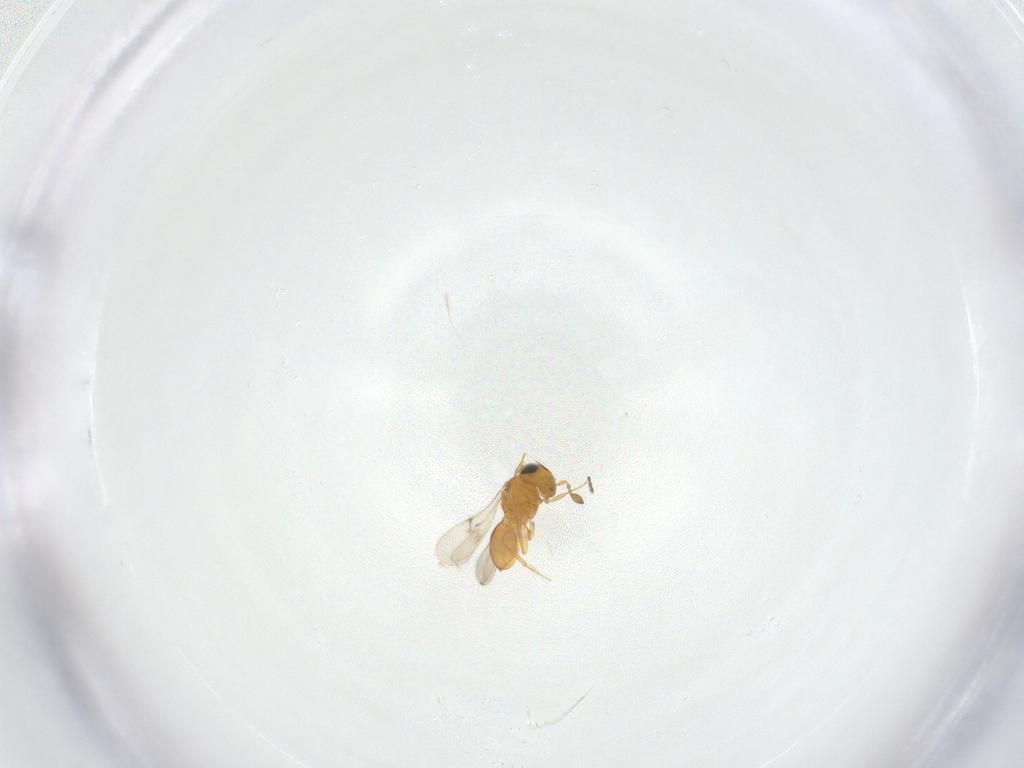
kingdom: Animalia
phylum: Arthropoda
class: Insecta
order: Hymenoptera
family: Scelionidae
